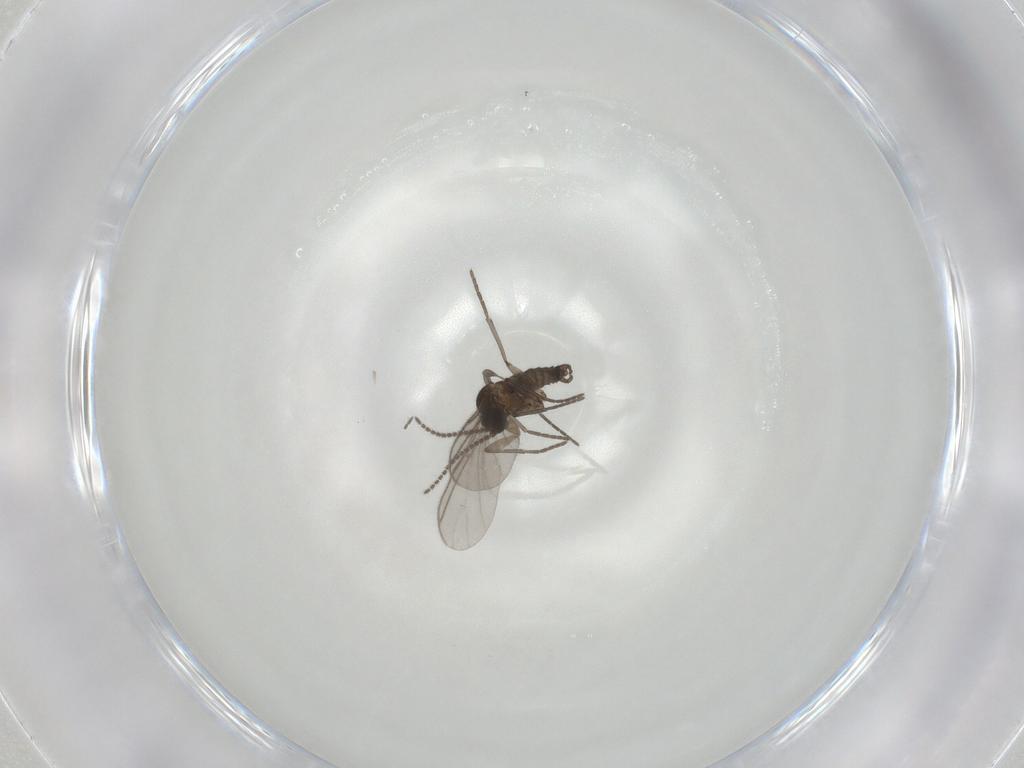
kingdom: Animalia
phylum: Arthropoda
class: Insecta
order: Diptera
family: Sciaridae
